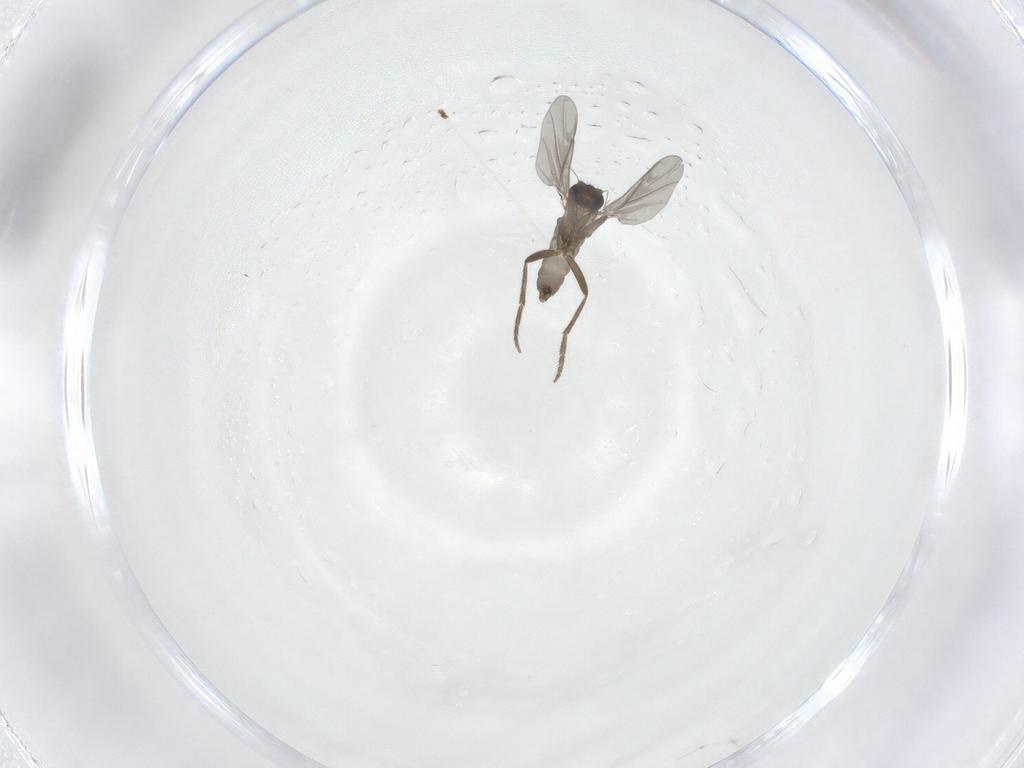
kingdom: Animalia
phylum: Arthropoda
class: Insecta
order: Diptera
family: Phoridae
